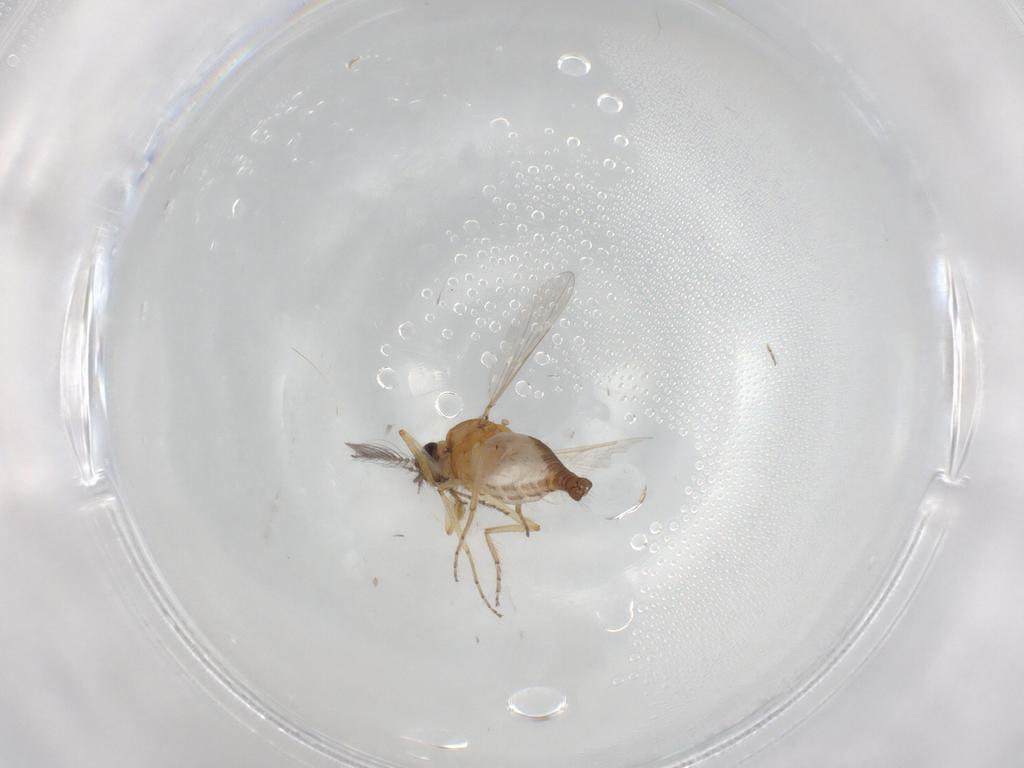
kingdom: Animalia
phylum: Arthropoda
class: Insecta
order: Diptera
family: Ceratopogonidae
